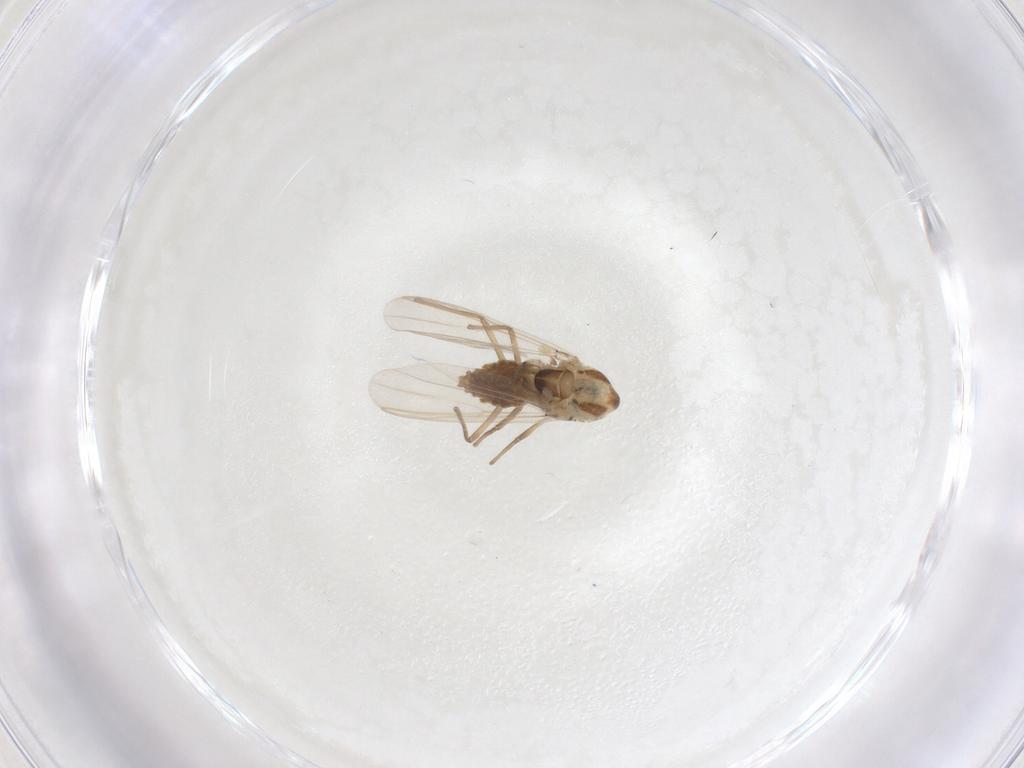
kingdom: Animalia
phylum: Arthropoda
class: Insecta
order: Diptera
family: Chironomidae
